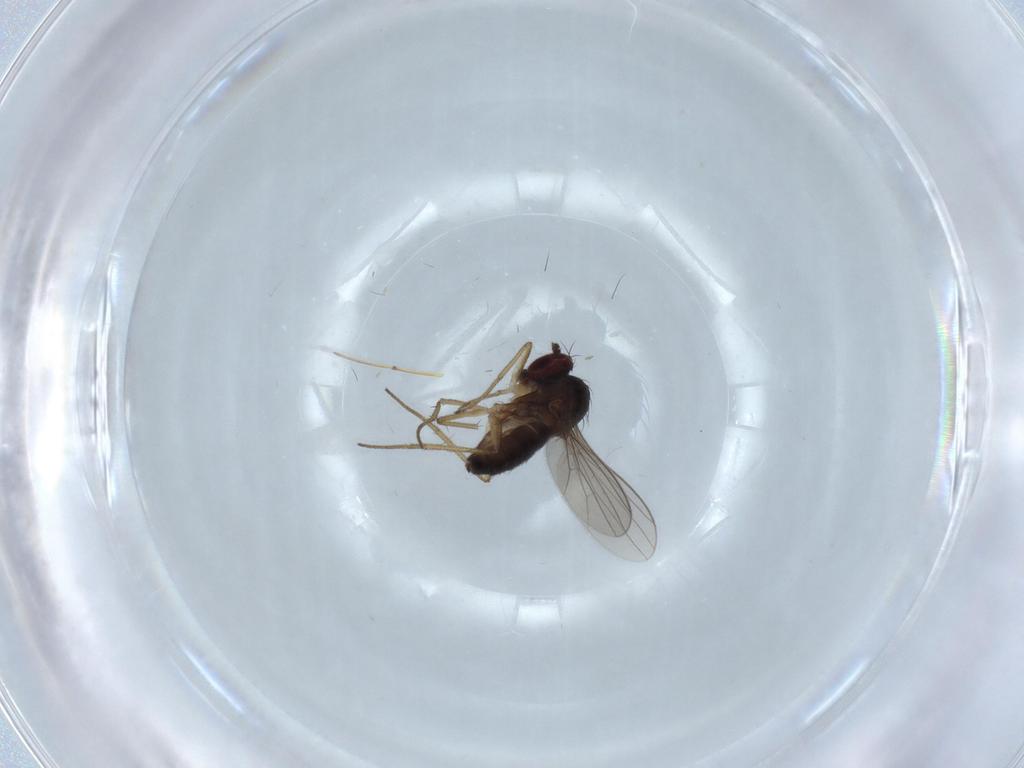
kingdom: Animalia
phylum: Arthropoda
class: Insecta
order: Diptera
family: Dolichopodidae
